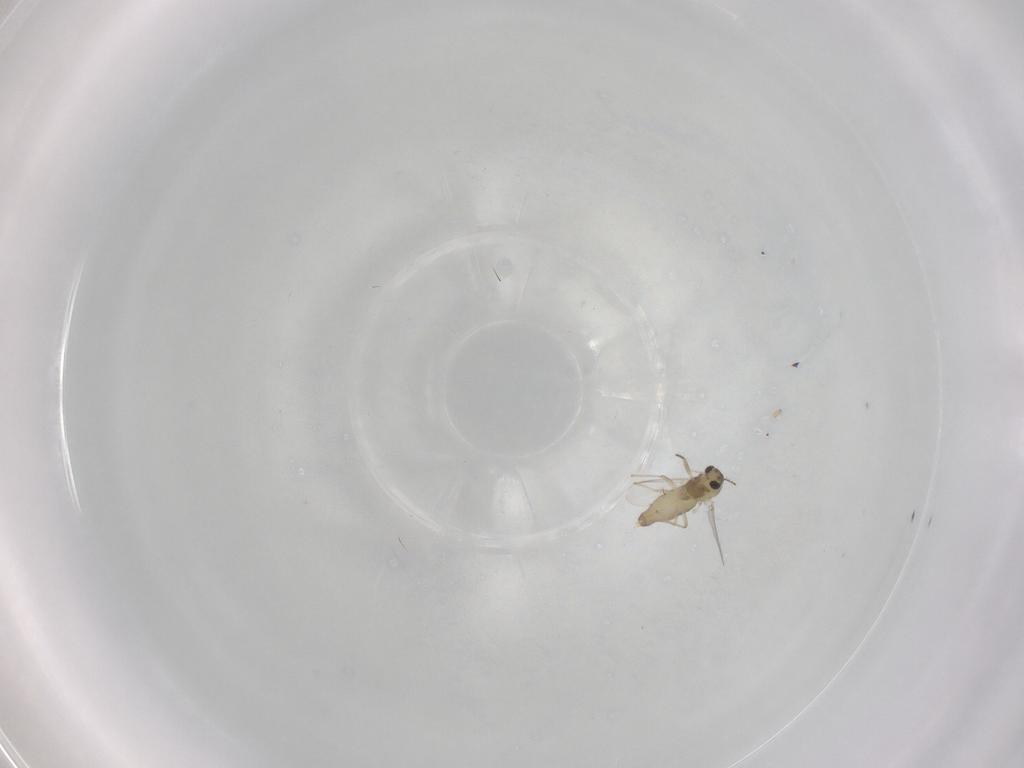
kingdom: Animalia
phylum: Arthropoda
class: Insecta
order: Diptera
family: Chironomidae
